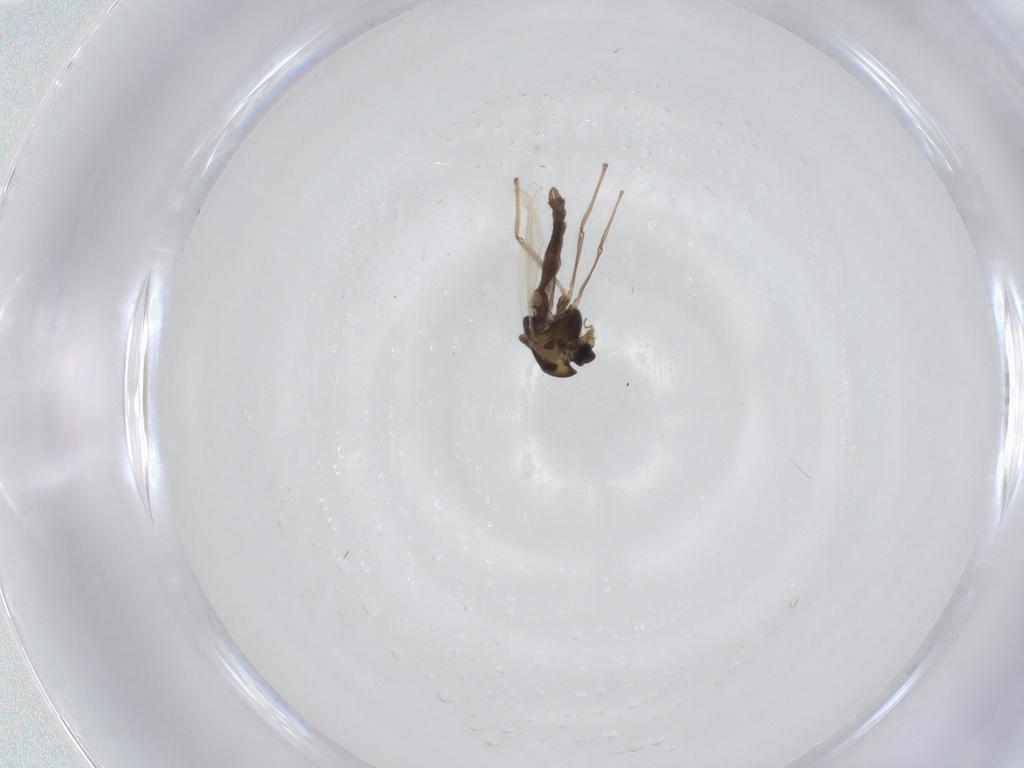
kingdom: Animalia
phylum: Arthropoda
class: Insecta
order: Diptera
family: Chironomidae
